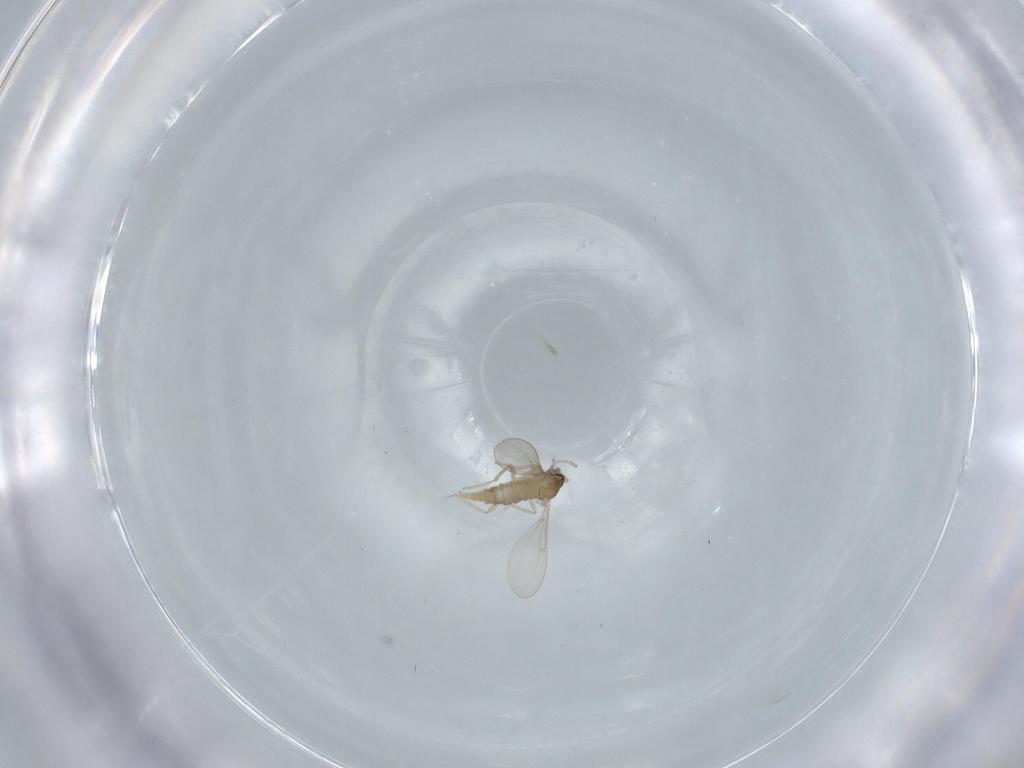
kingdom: Animalia
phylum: Arthropoda
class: Insecta
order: Diptera
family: Cecidomyiidae
